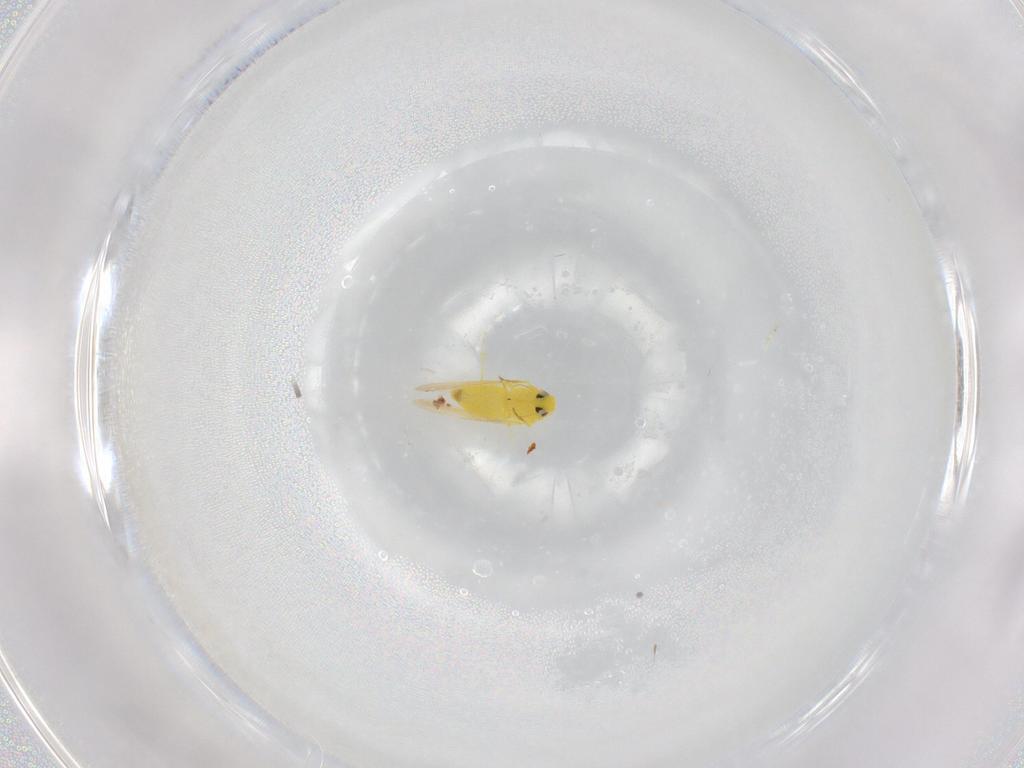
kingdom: Animalia
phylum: Arthropoda
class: Insecta
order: Hemiptera
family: Aleyrodidae
